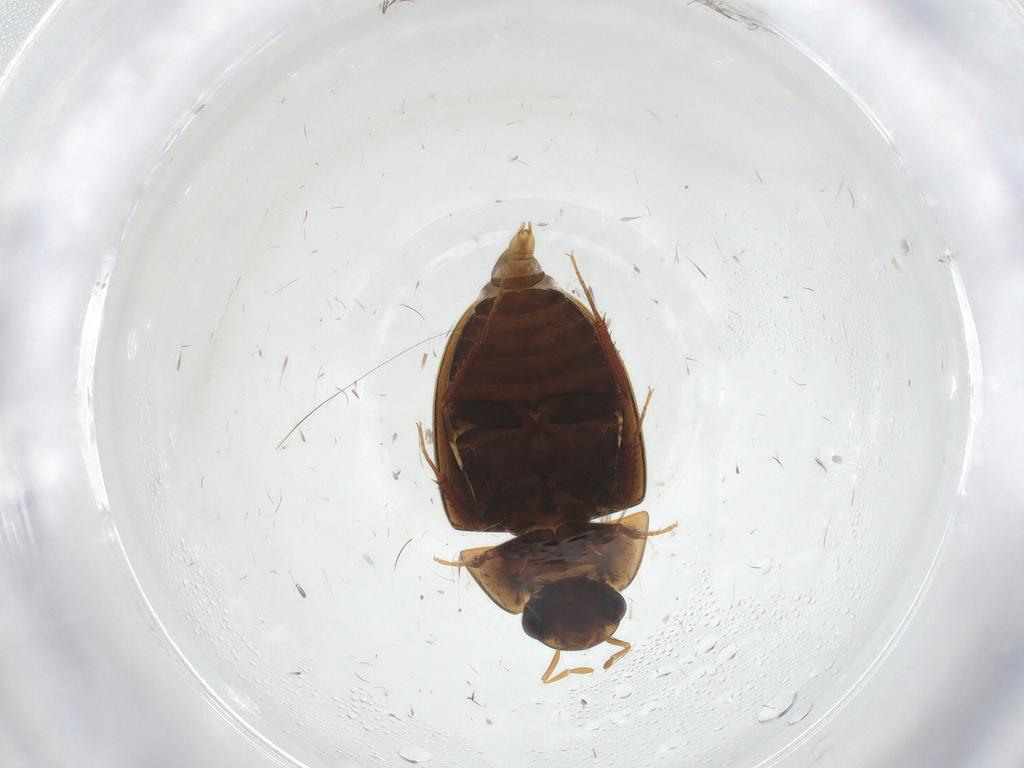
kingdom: Animalia
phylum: Arthropoda
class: Insecta
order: Coleoptera
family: Hydrophilidae
